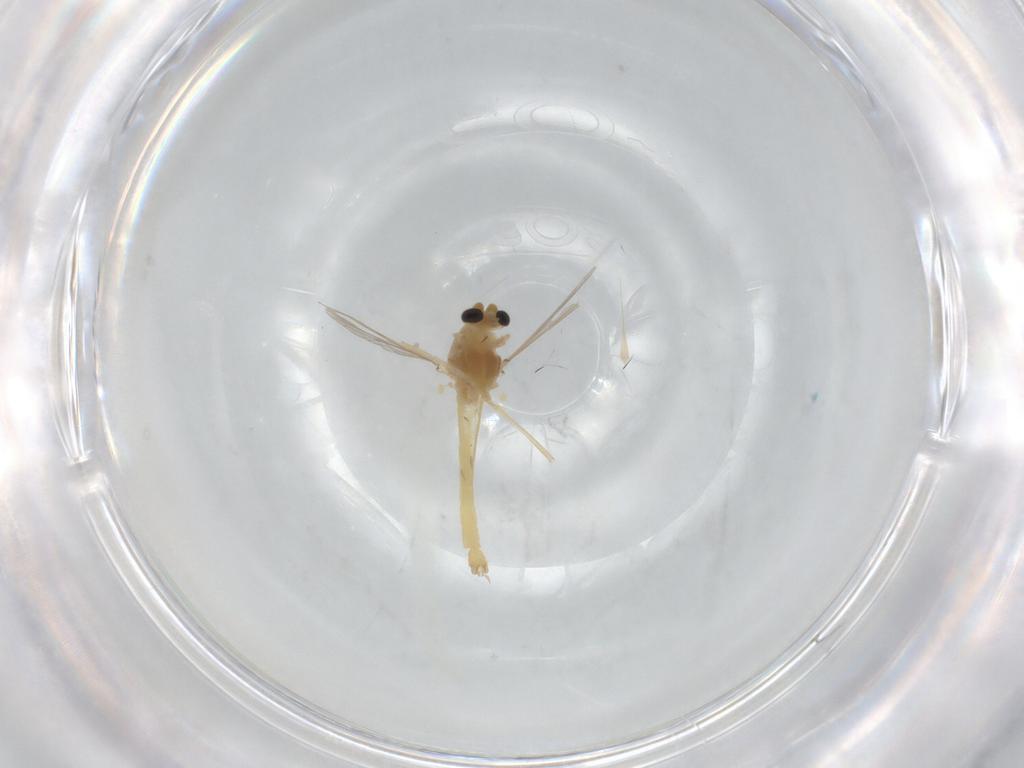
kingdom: Animalia
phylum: Arthropoda
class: Insecta
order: Diptera
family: Chironomidae
